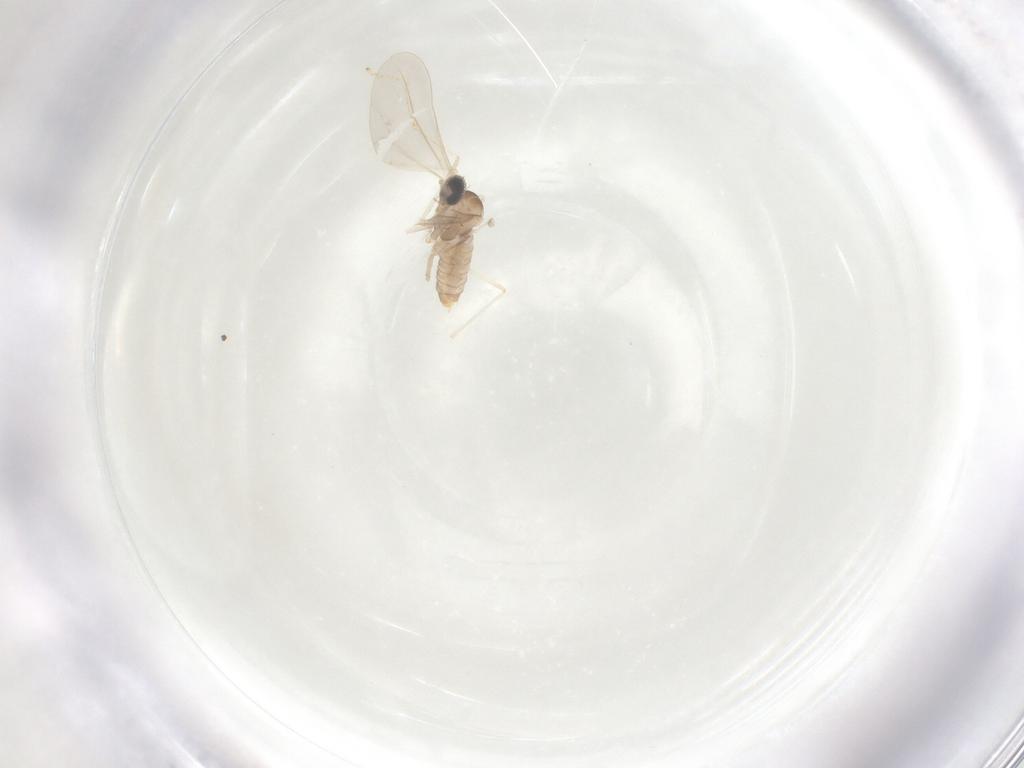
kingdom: Animalia
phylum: Arthropoda
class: Insecta
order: Diptera
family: Cecidomyiidae
